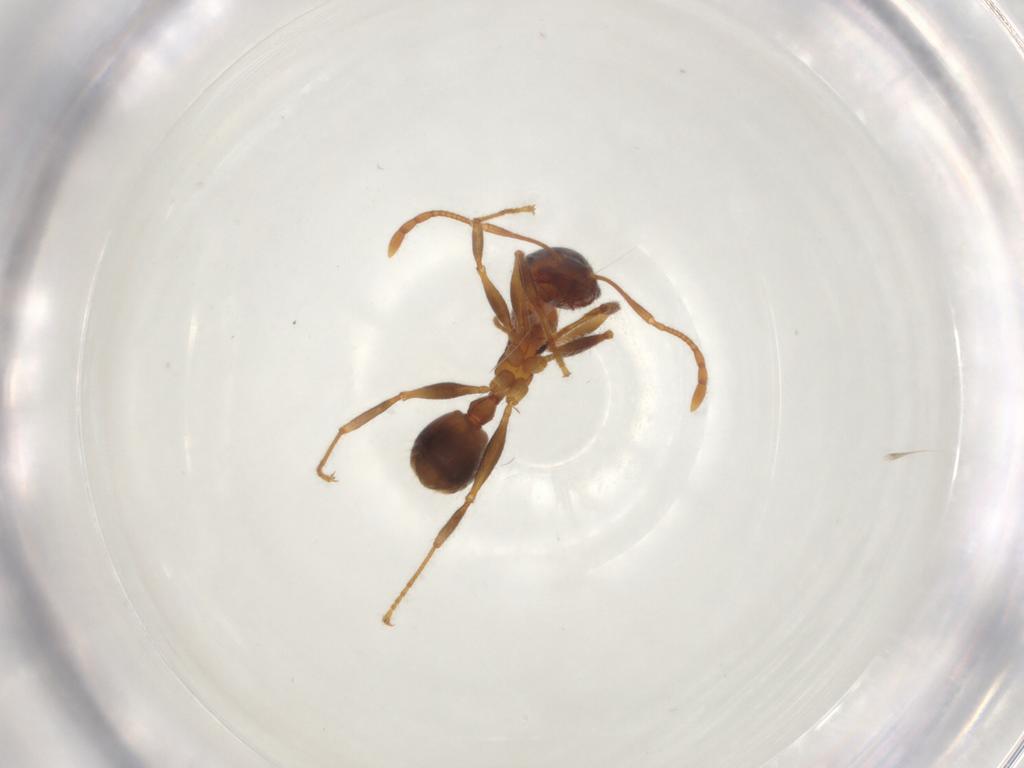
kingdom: Animalia
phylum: Arthropoda
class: Insecta
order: Hymenoptera
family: Formicidae
